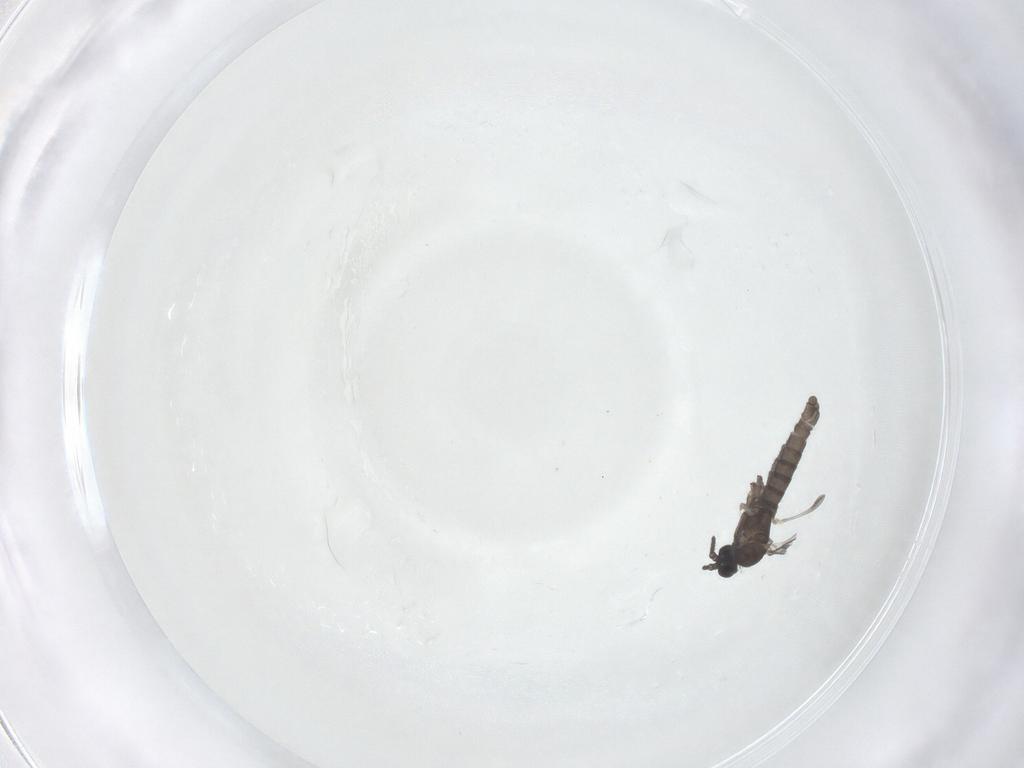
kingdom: Animalia
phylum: Arthropoda
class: Insecta
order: Diptera
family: Sciaridae
